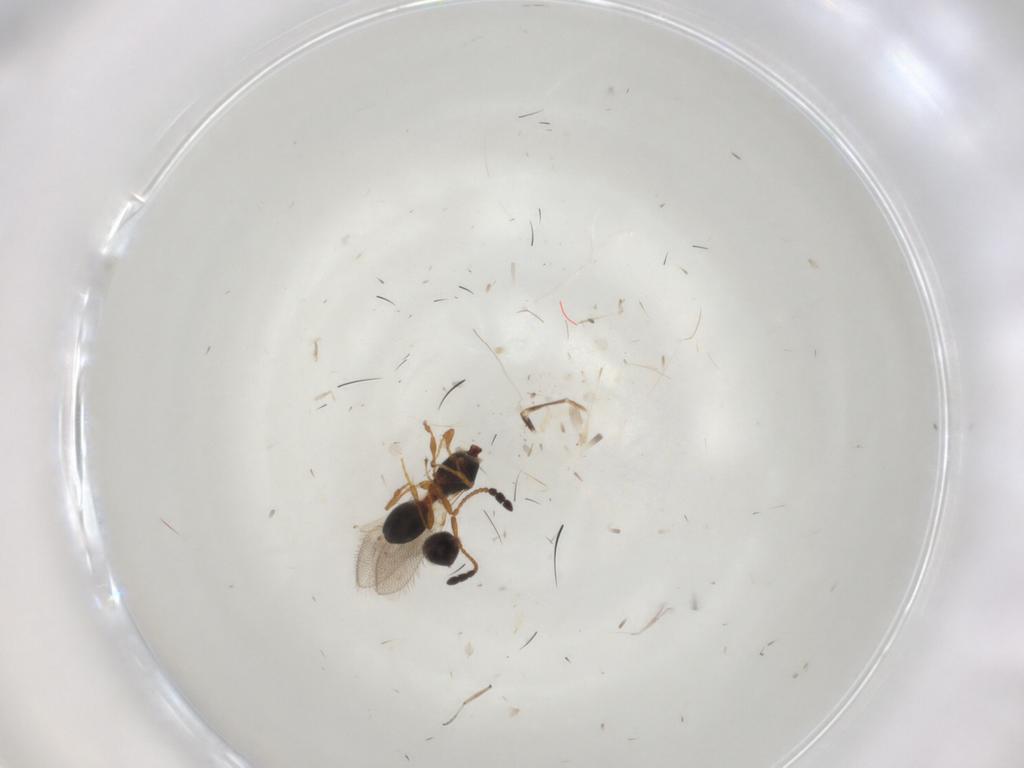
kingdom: Animalia
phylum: Arthropoda
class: Insecta
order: Hymenoptera
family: Diapriidae
